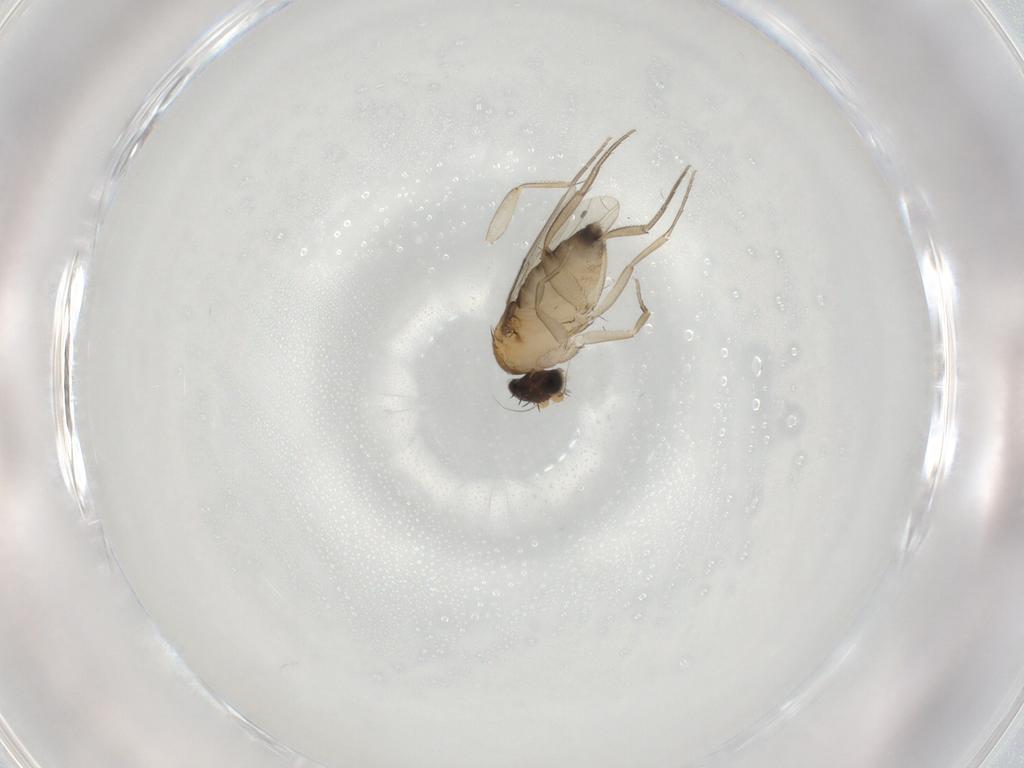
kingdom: Animalia
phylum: Arthropoda
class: Insecta
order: Diptera
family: Phoridae
